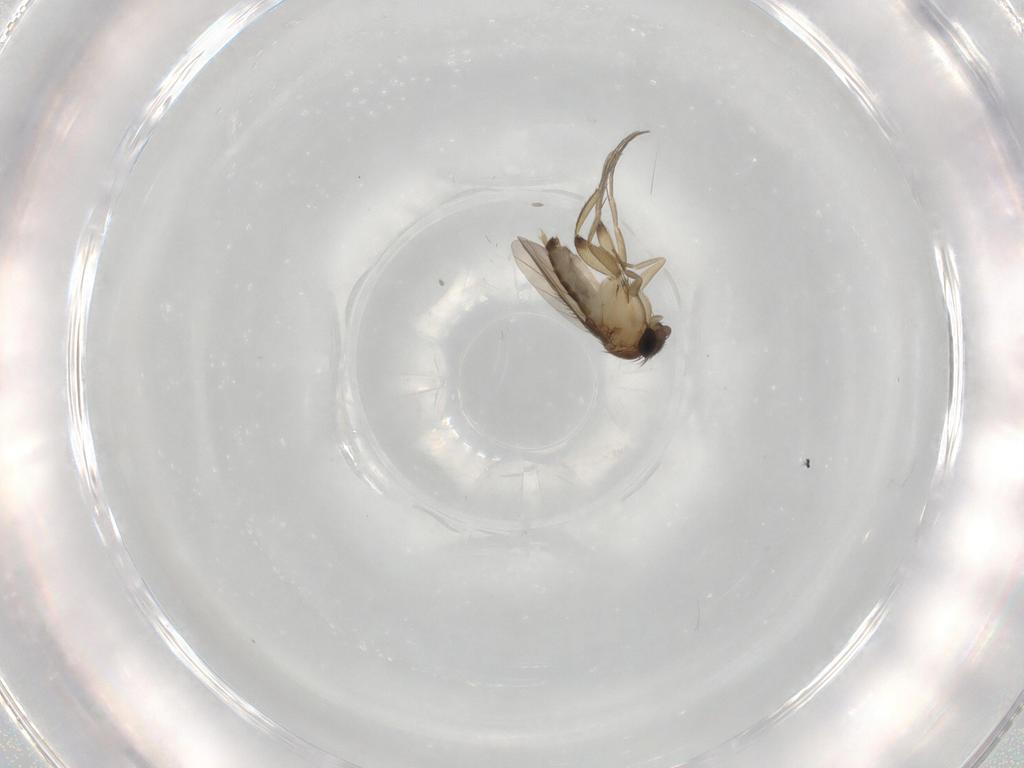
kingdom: Animalia
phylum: Arthropoda
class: Insecta
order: Diptera
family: Phoridae
